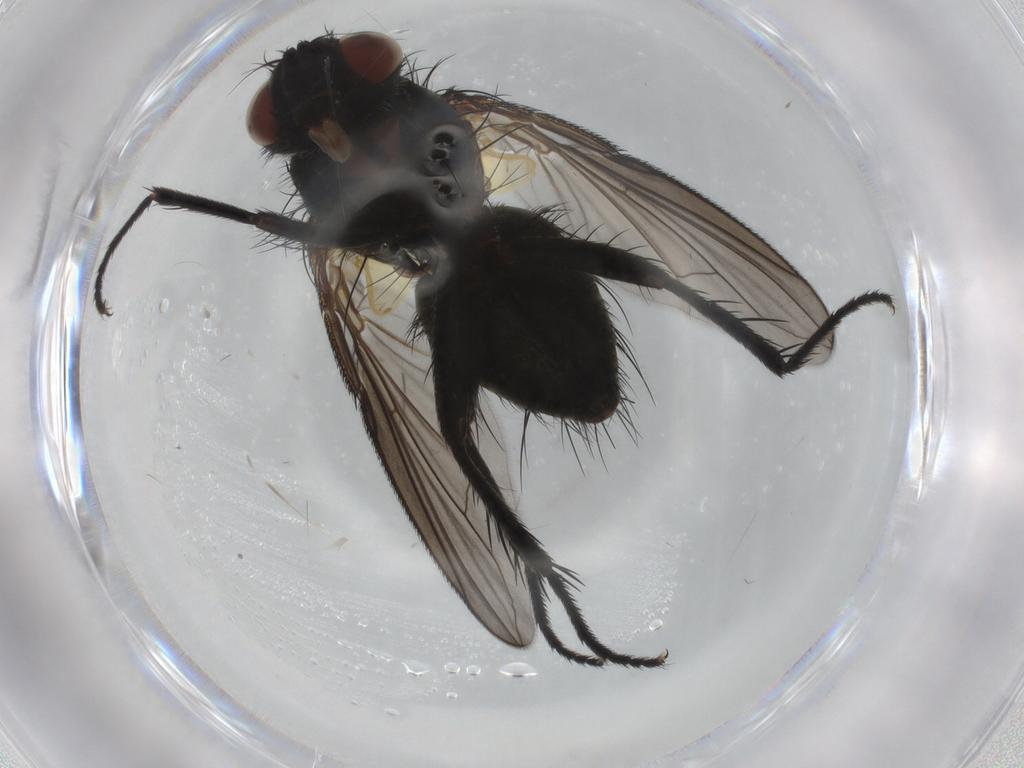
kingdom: Animalia
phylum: Arthropoda
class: Insecta
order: Diptera
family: Tachinidae
